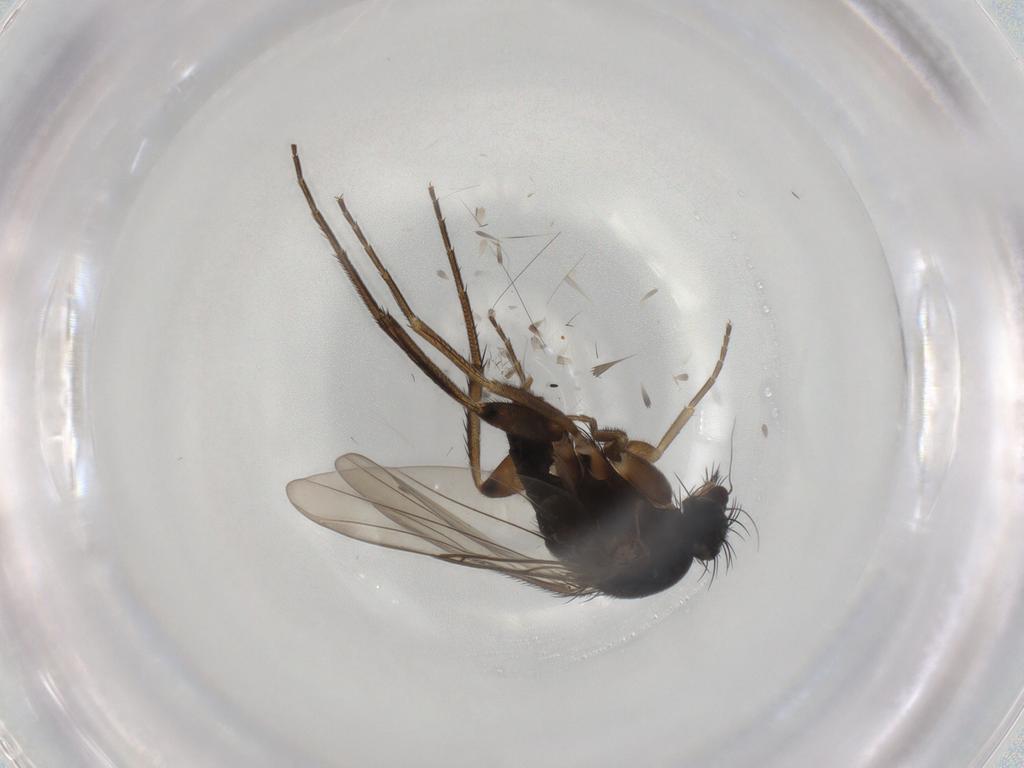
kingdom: Animalia
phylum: Arthropoda
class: Insecta
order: Diptera
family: Phoridae
